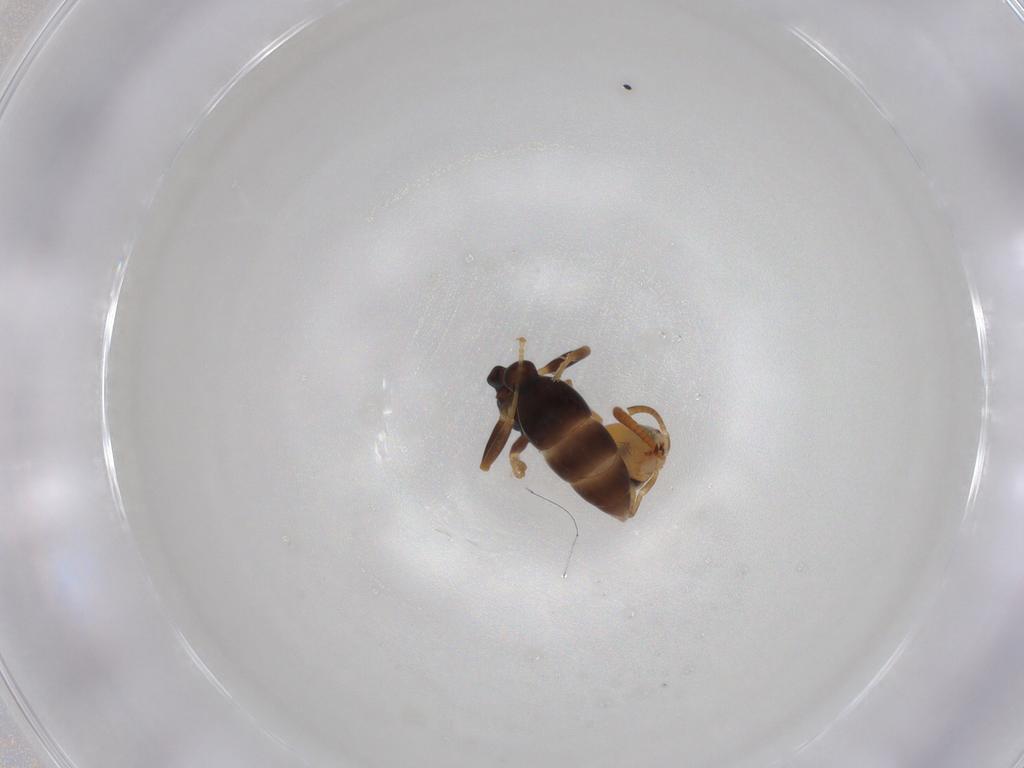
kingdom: Animalia
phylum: Arthropoda
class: Insecta
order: Hymenoptera
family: Formicidae
